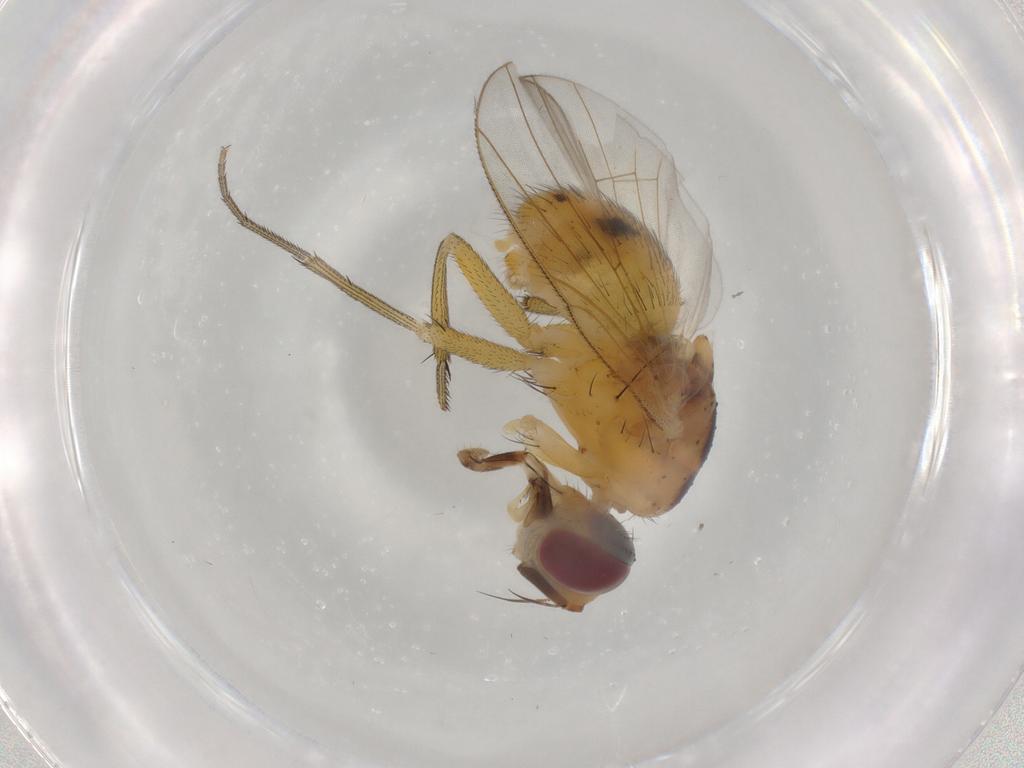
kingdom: Animalia
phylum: Arthropoda
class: Insecta
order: Diptera
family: Muscidae
